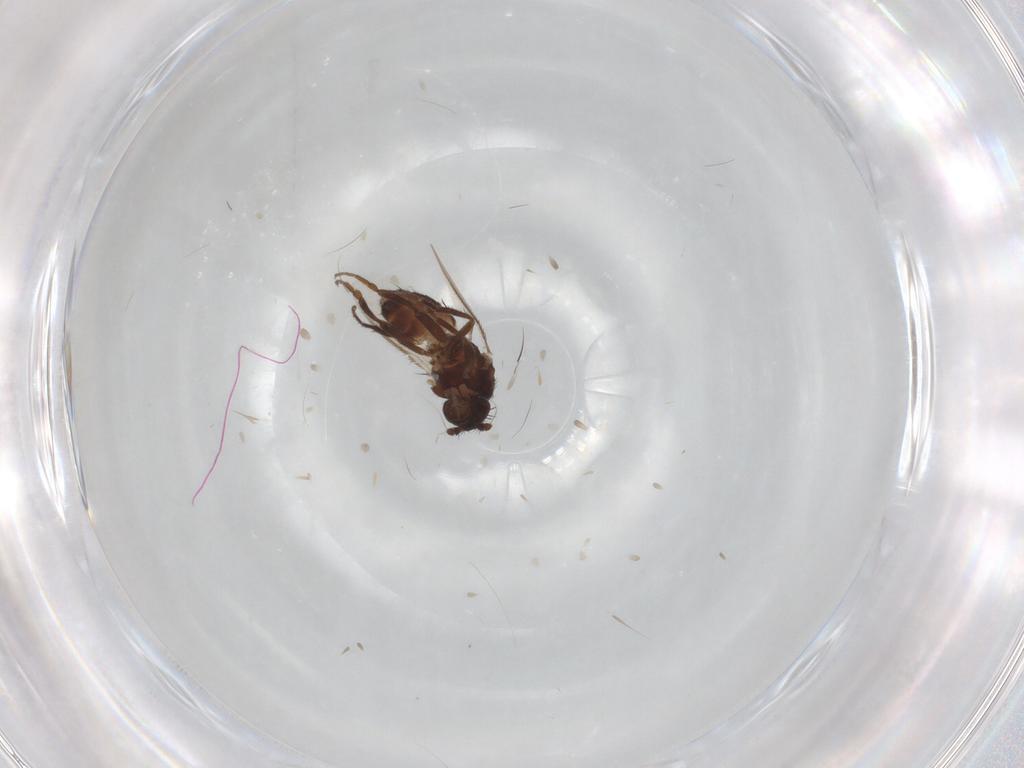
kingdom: Animalia
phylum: Arthropoda
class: Insecta
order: Diptera
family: Sphaeroceridae
